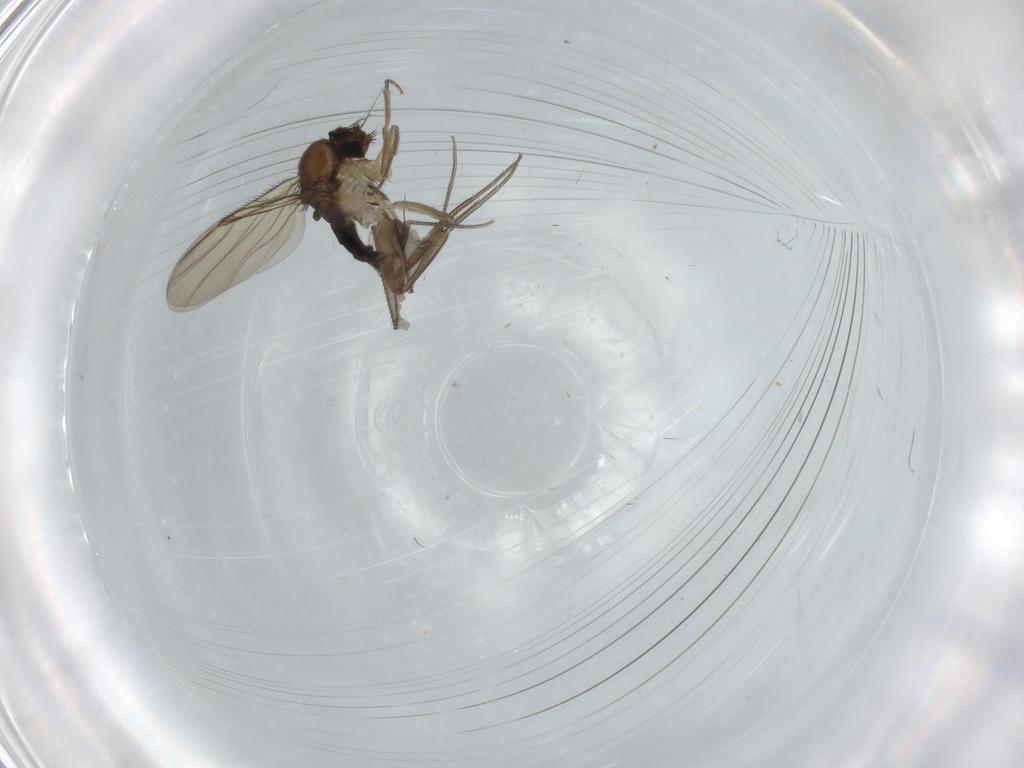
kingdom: Animalia
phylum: Arthropoda
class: Insecta
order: Diptera
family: Phoridae
